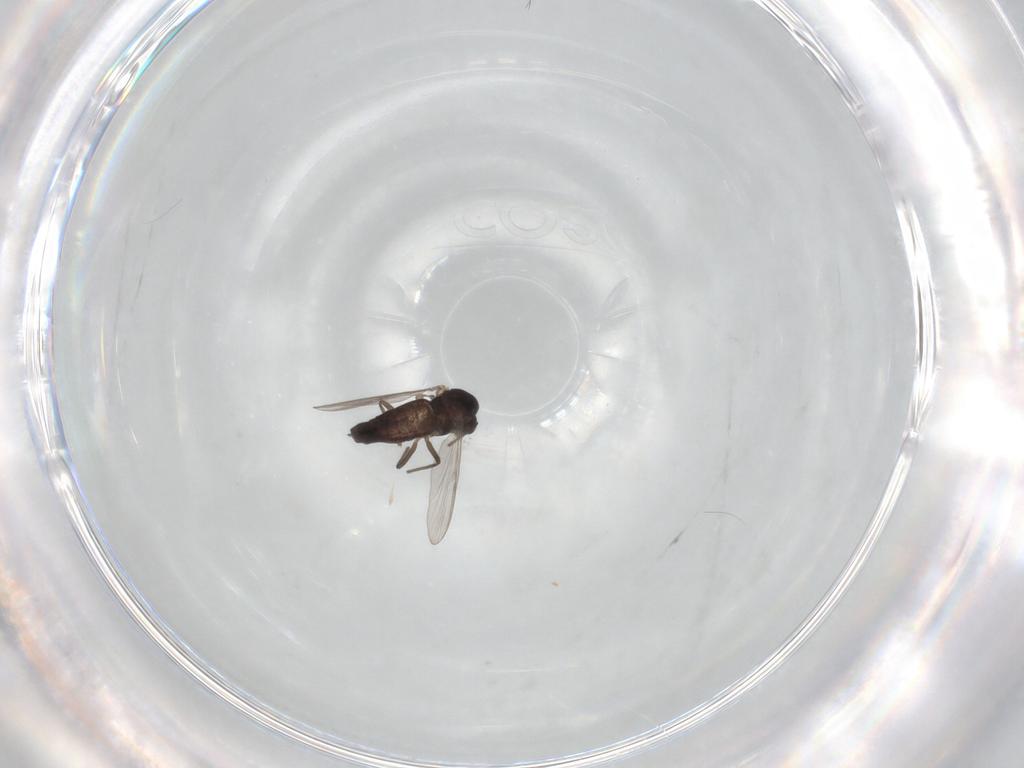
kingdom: Animalia
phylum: Arthropoda
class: Insecta
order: Diptera
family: Chironomidae
